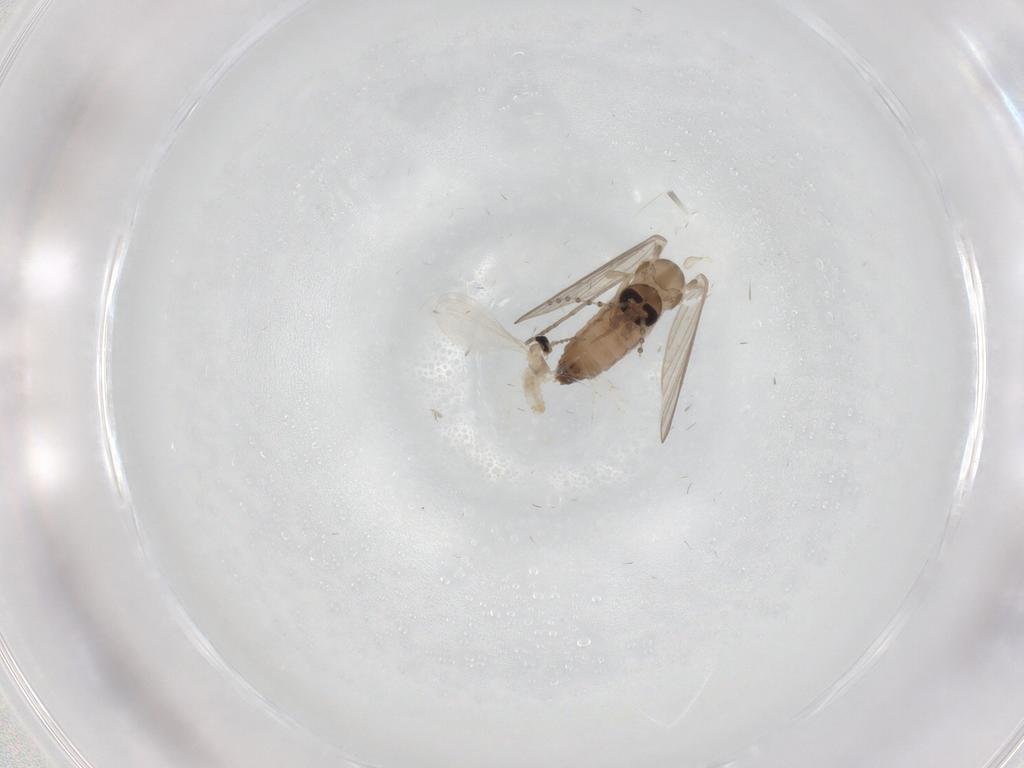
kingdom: Animalia
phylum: Arthropoda
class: Insecta
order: Diptera
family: Psychodidae
